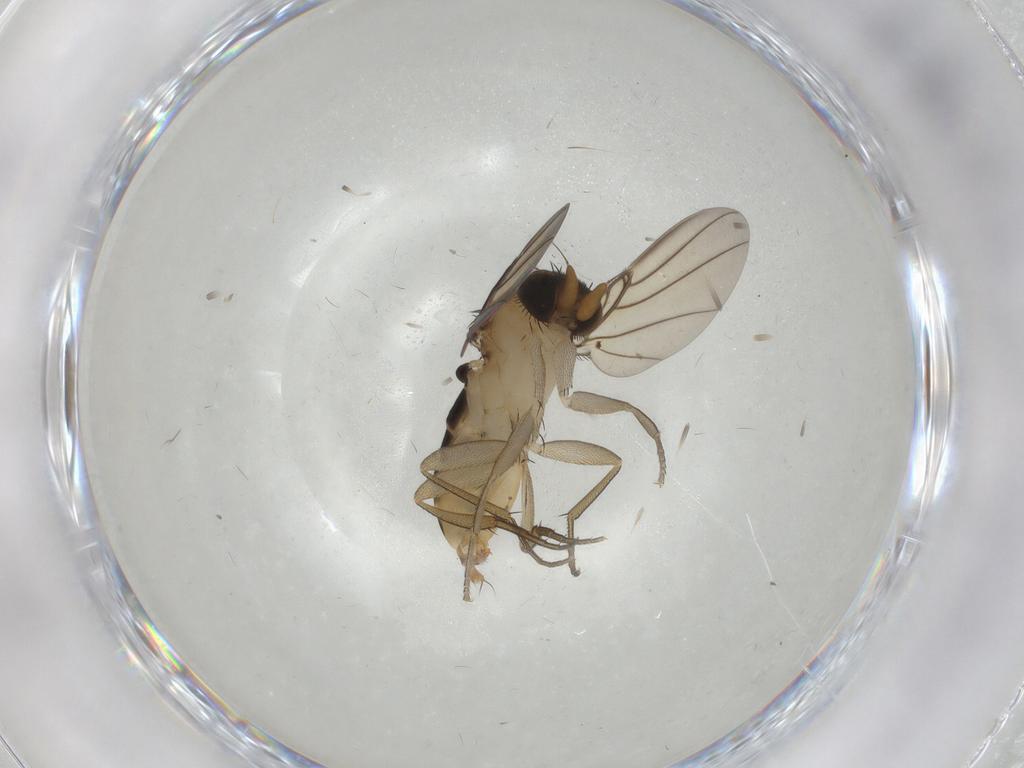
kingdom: Animalia
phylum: Arthropoda
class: Insecta
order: Diptera
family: Phoridae
